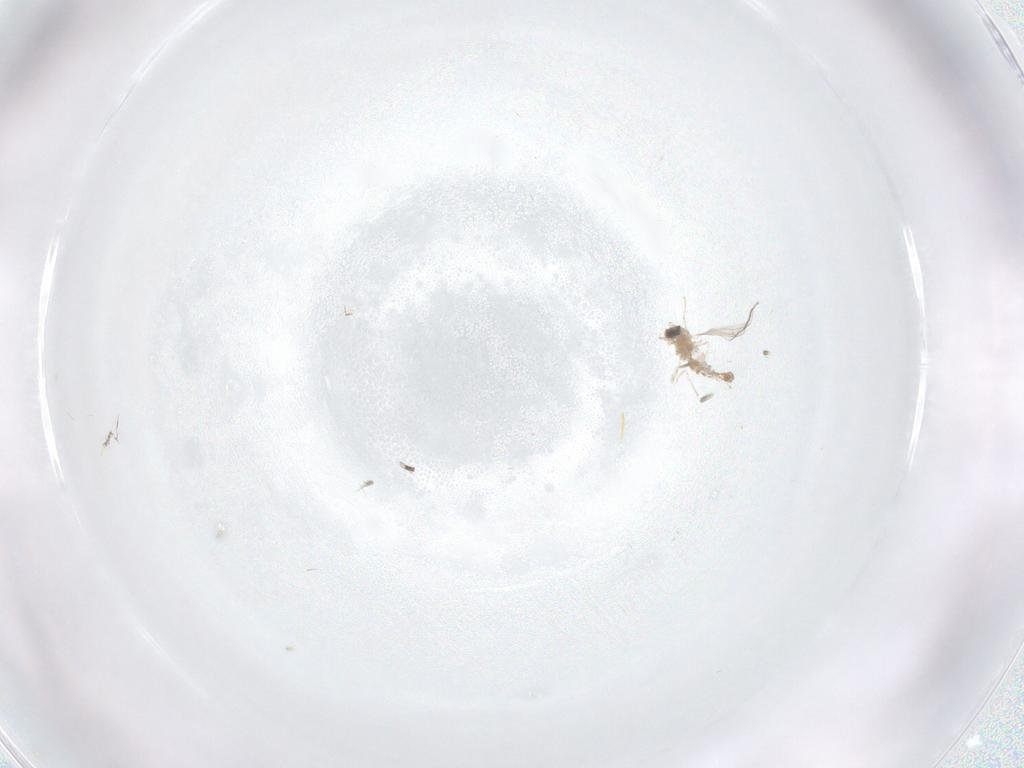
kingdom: Animalia
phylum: Arthropoda
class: Insecta
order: Diptera
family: Cecidomyiidae
